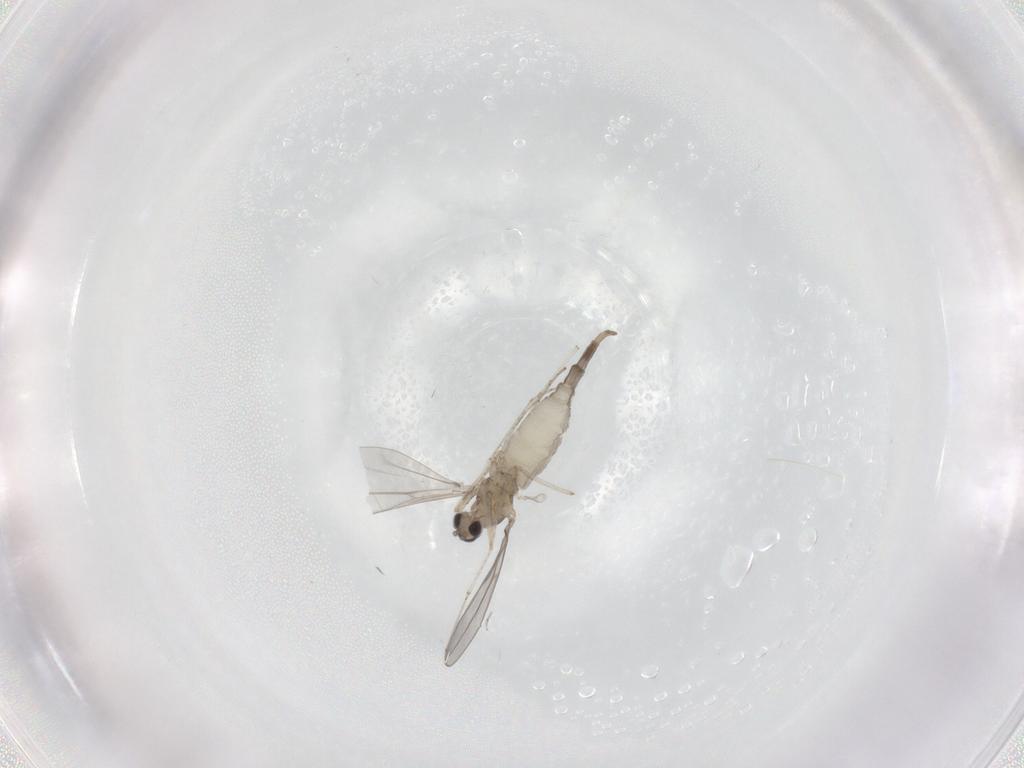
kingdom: Animalia
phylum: Arthropoda
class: Insecta
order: Diptera
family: Cecidomyiidae
